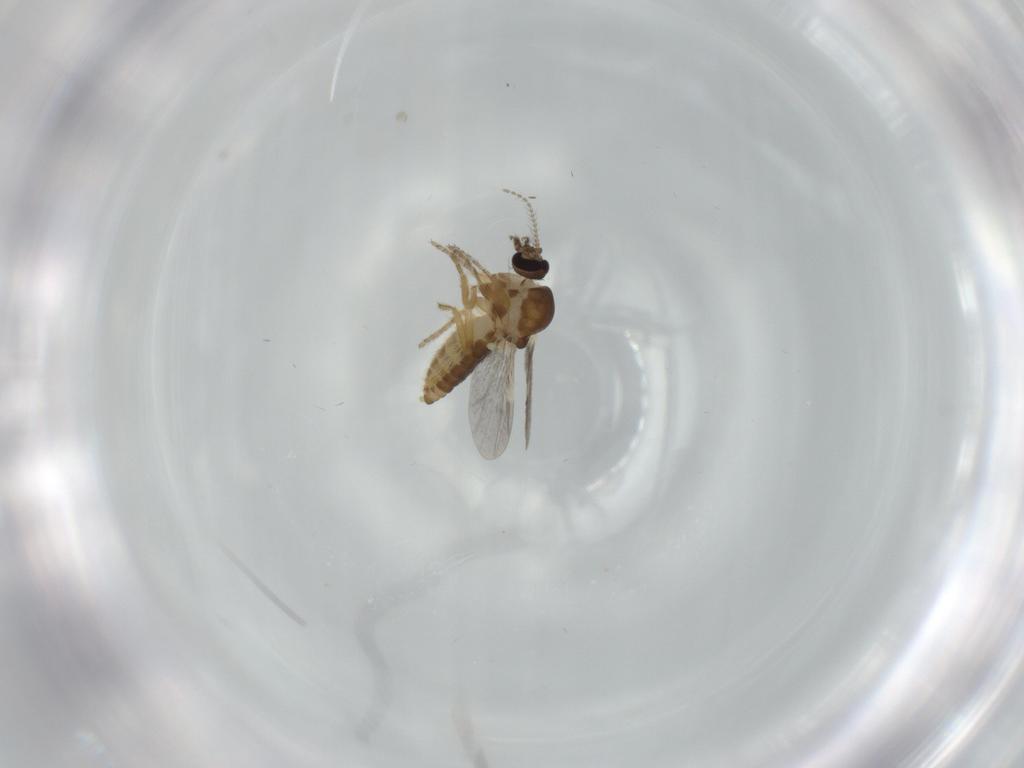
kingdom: Animalia
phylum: Arthropoda
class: Insecta
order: Diptera
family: Ceratopogonidae
